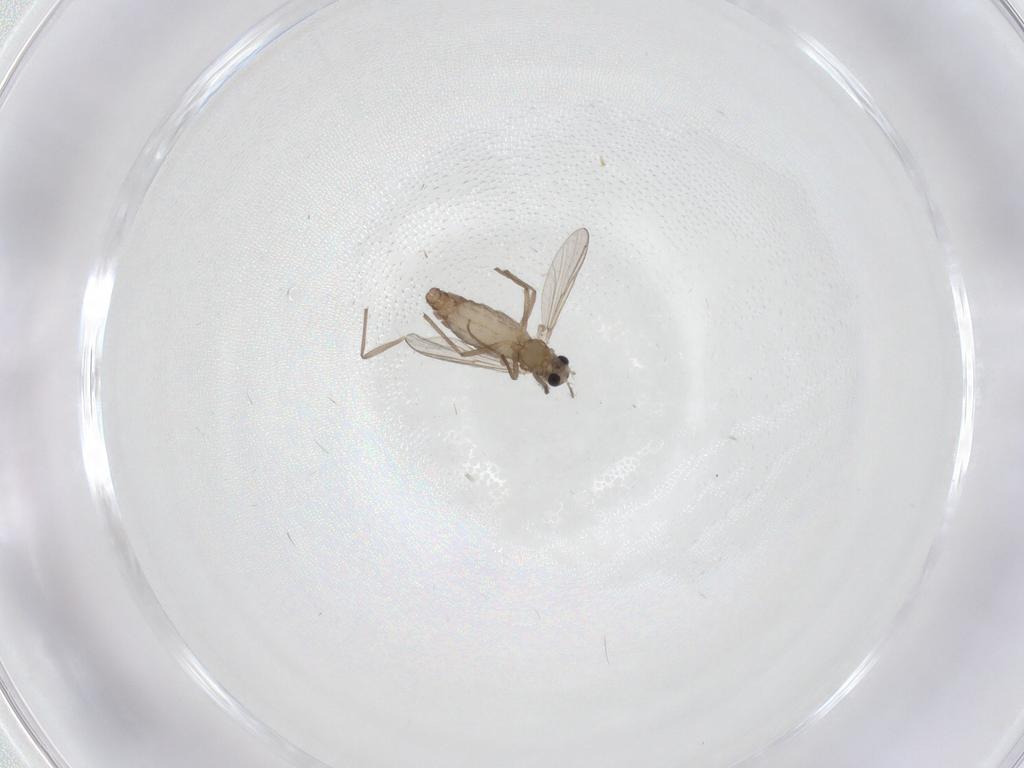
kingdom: Animalia
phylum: Arthropoda
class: Insecta
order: Diptera
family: Chironomidae
